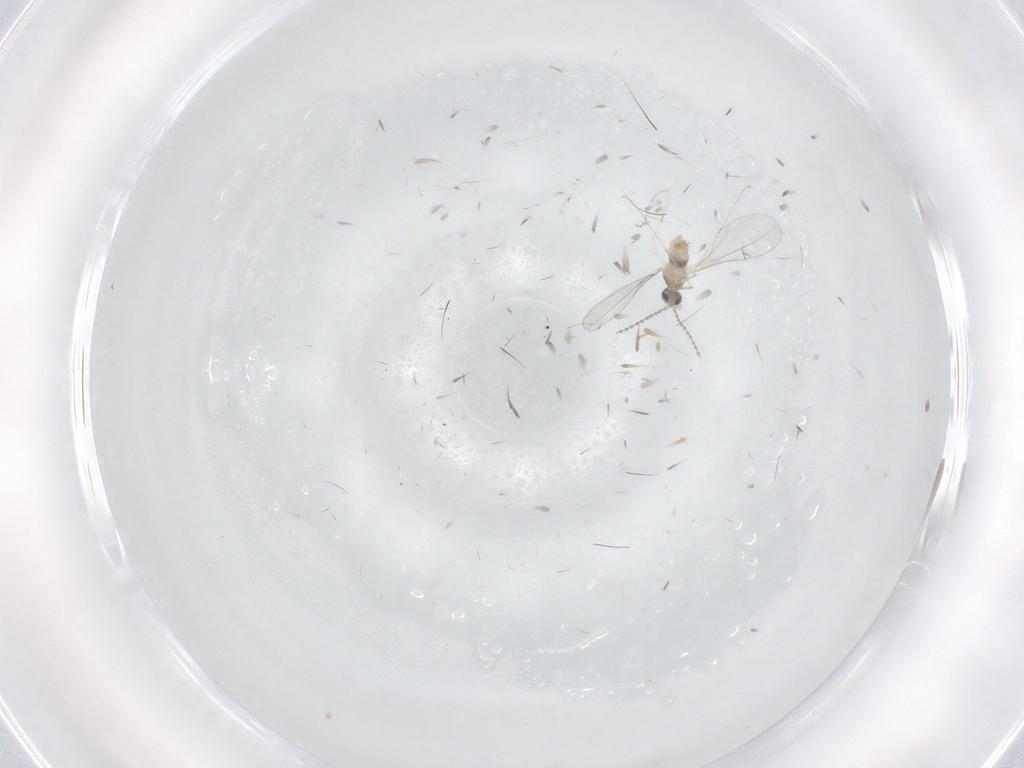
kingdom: Animalia
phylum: Arthropoda
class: Insecta
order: Diptera
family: Cecidomyiidae
